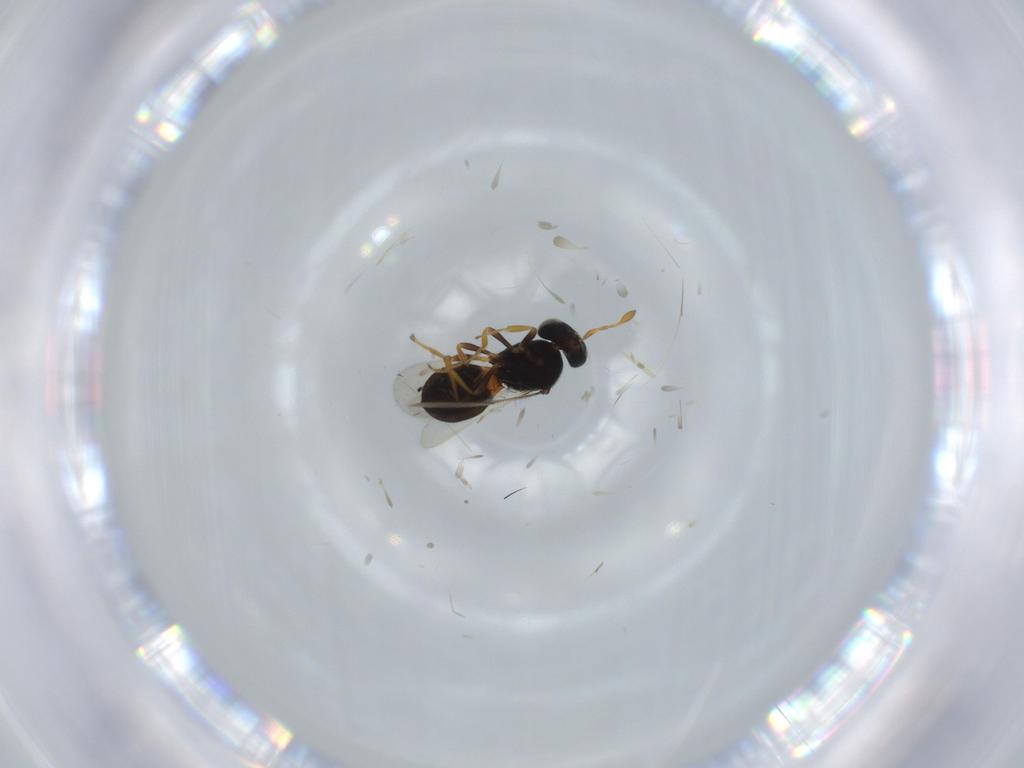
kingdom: Animalia
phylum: Arthropoda
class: Insecta
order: Hymenoptera
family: Scelionidae
